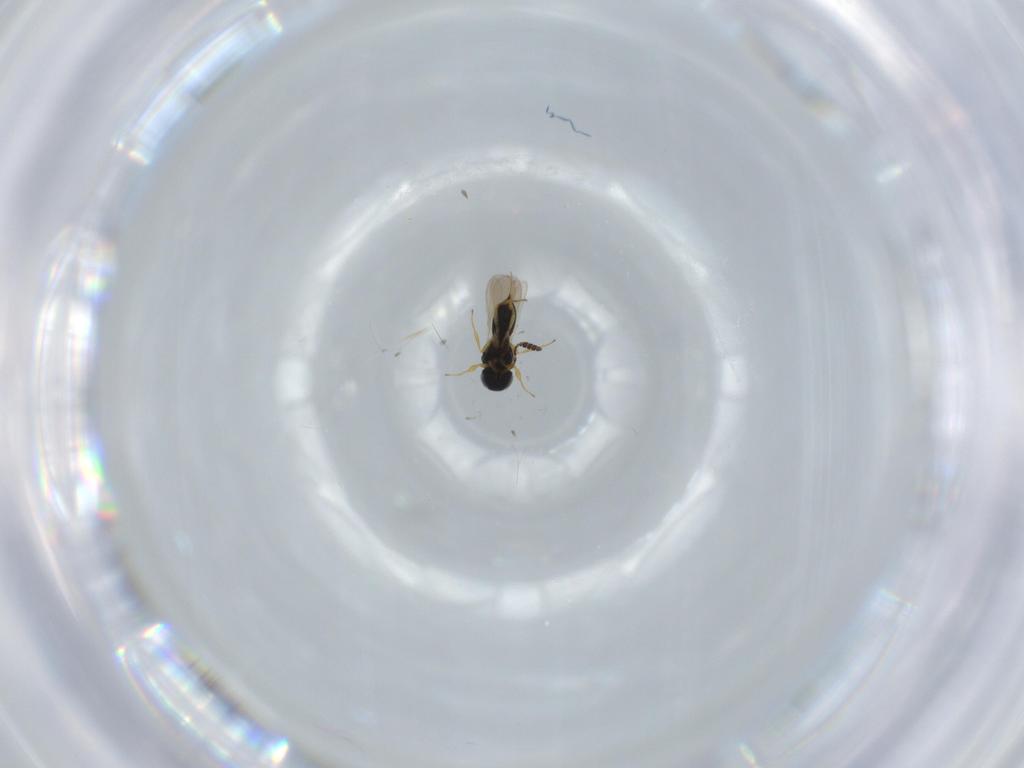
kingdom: Animalia
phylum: Arthropoda
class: Insecta
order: Hymenoptera
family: Scelionidae
